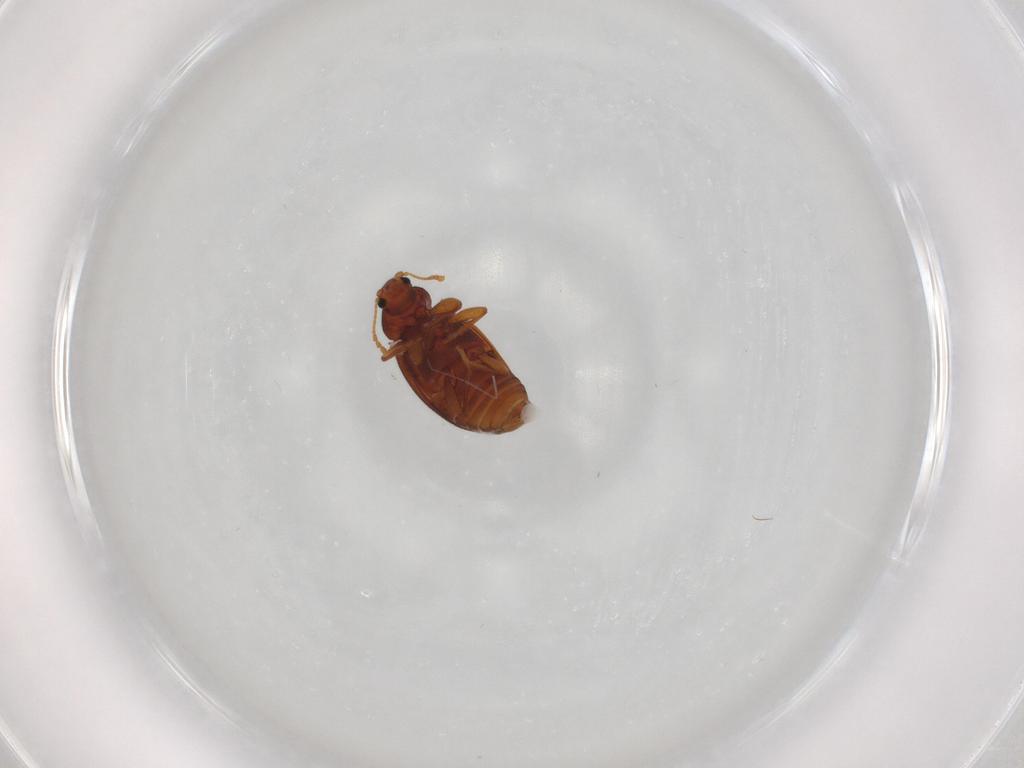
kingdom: Animalia
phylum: Arthropoda
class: Insecta
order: Coleoptera
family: Latridiidae
